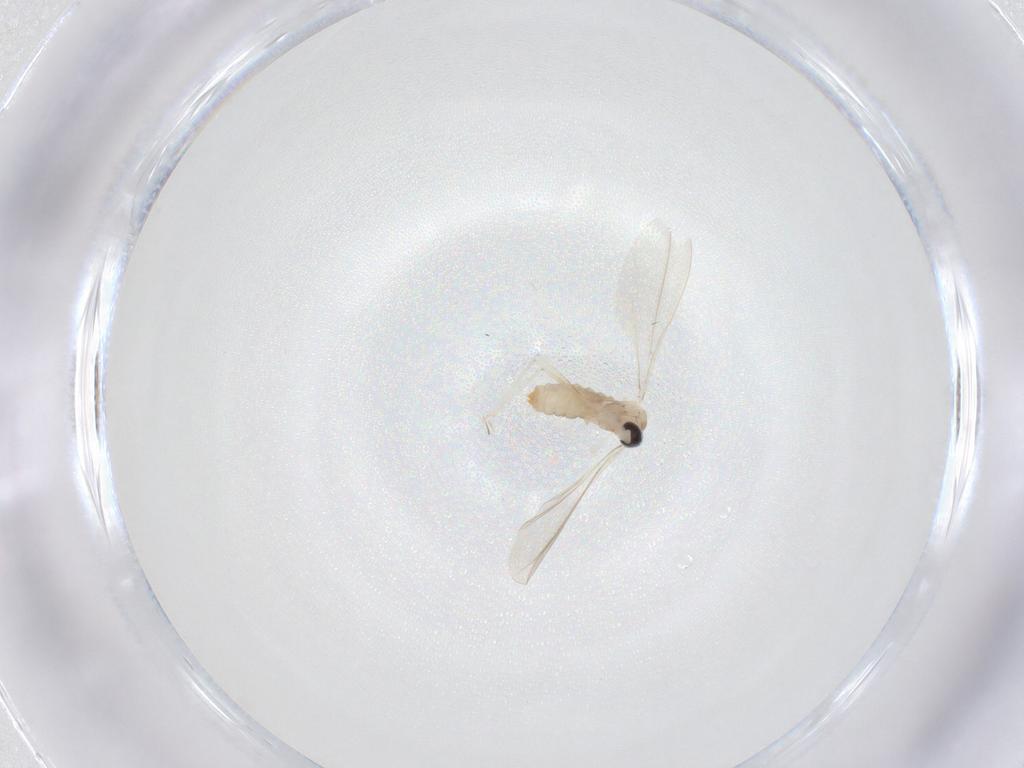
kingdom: Animalia
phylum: Arthropoda
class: Insecta
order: Diptera
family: Cecidomyiidae
